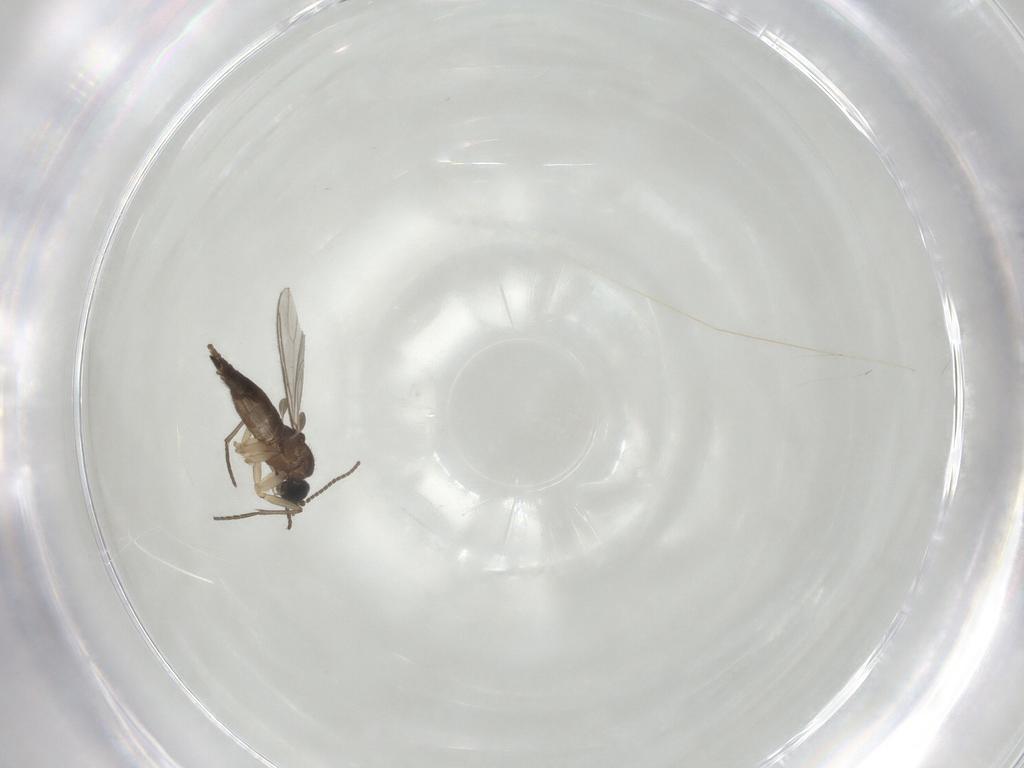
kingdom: Animalia
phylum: Arthropoda
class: Insecta
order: Diptera
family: Sciaridae
